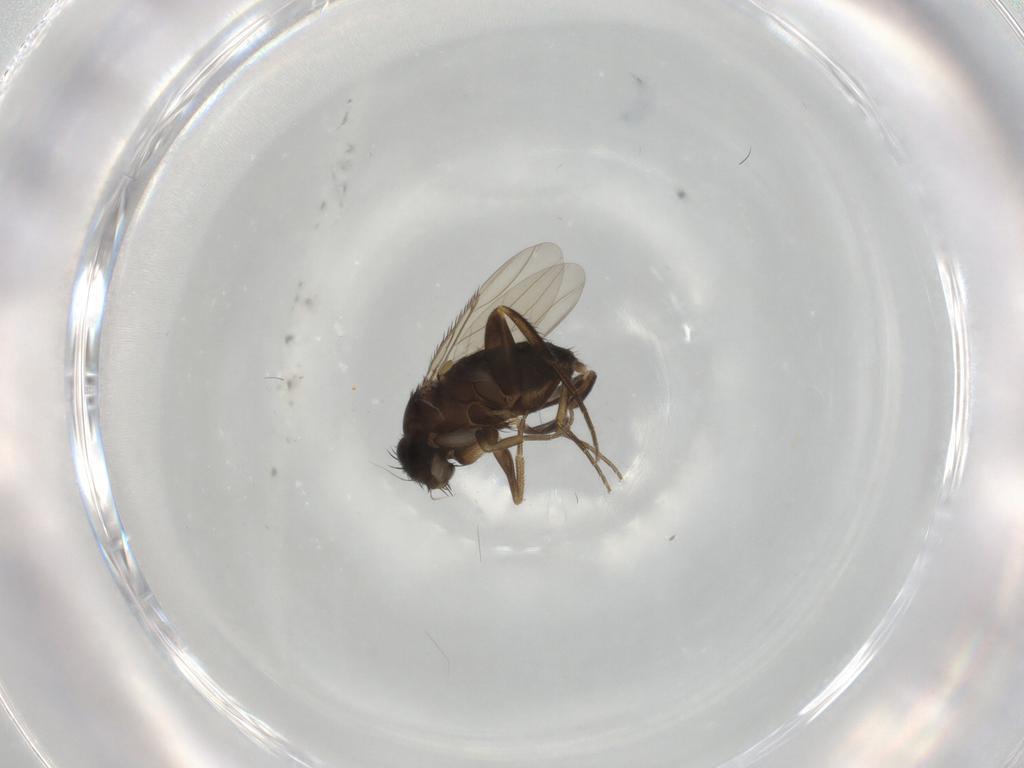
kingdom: Animalia
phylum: Arthropoda
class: Insecta
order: Diptera
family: Phoridae
